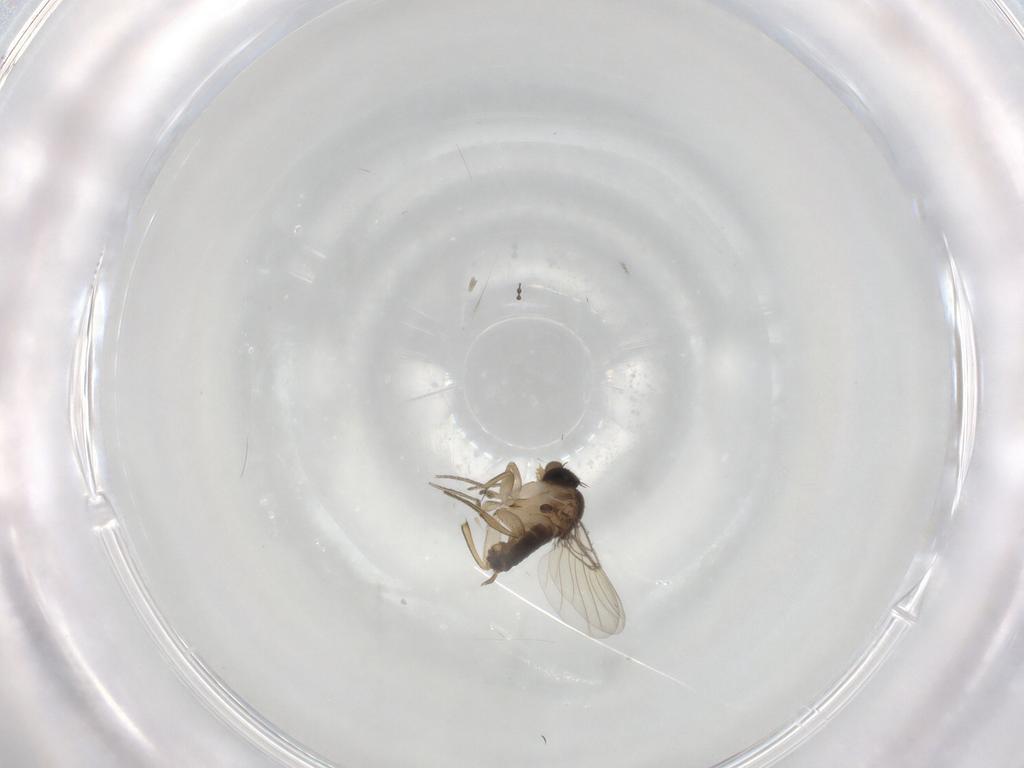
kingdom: Animalia
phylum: Arthropoda
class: Insecta
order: Diptera
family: Phoridae
